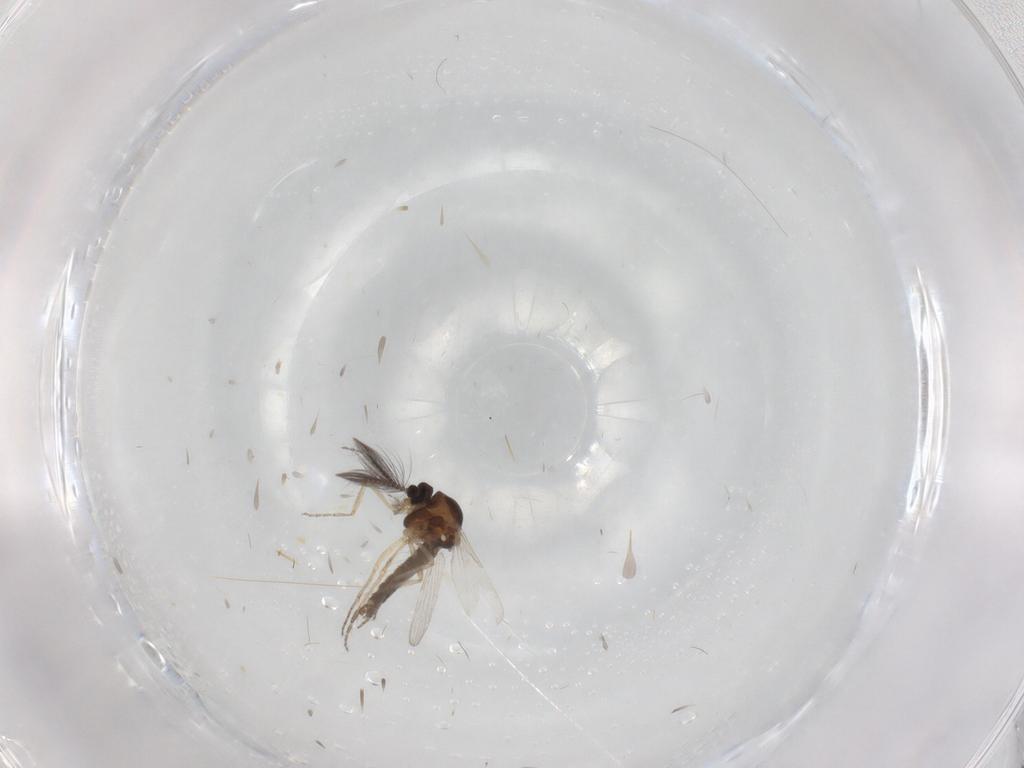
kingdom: Animalia
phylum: Arthropoda
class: Insecta
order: Diptera
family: Ceratopogonidae
